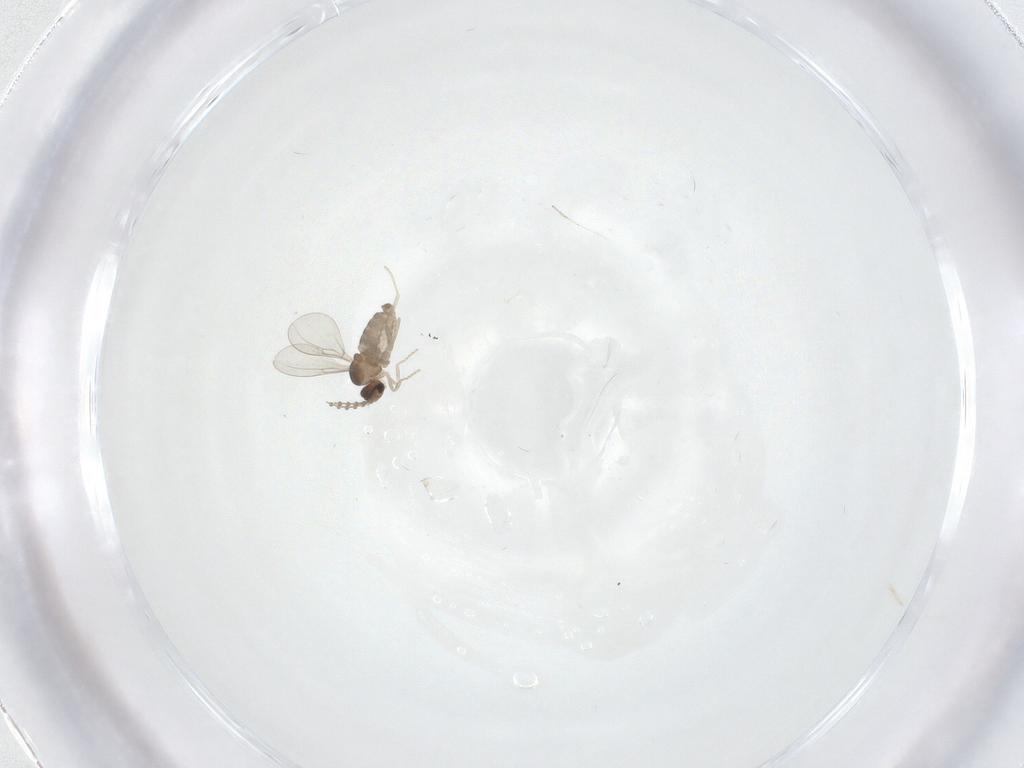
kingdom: Animalia
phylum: Arthropoda
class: Insecta
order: Diptera
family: Cecidomyiidae
